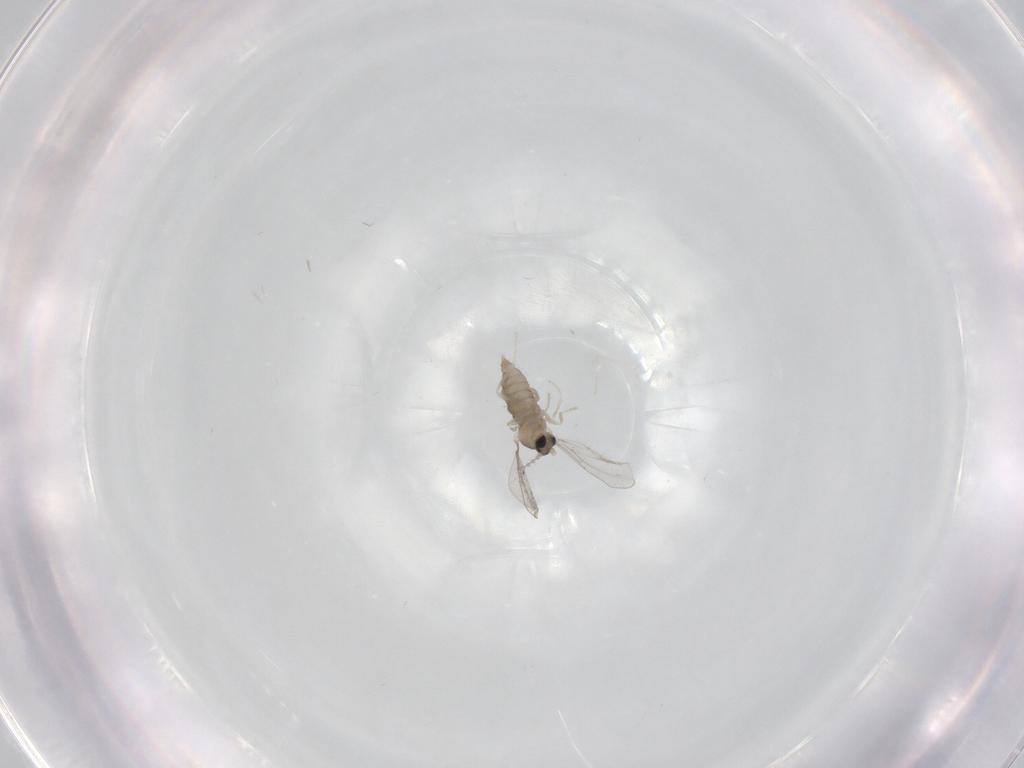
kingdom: Animalia
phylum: Arthropoda
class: Insecta
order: Diptera
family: Cecidomyiidae
